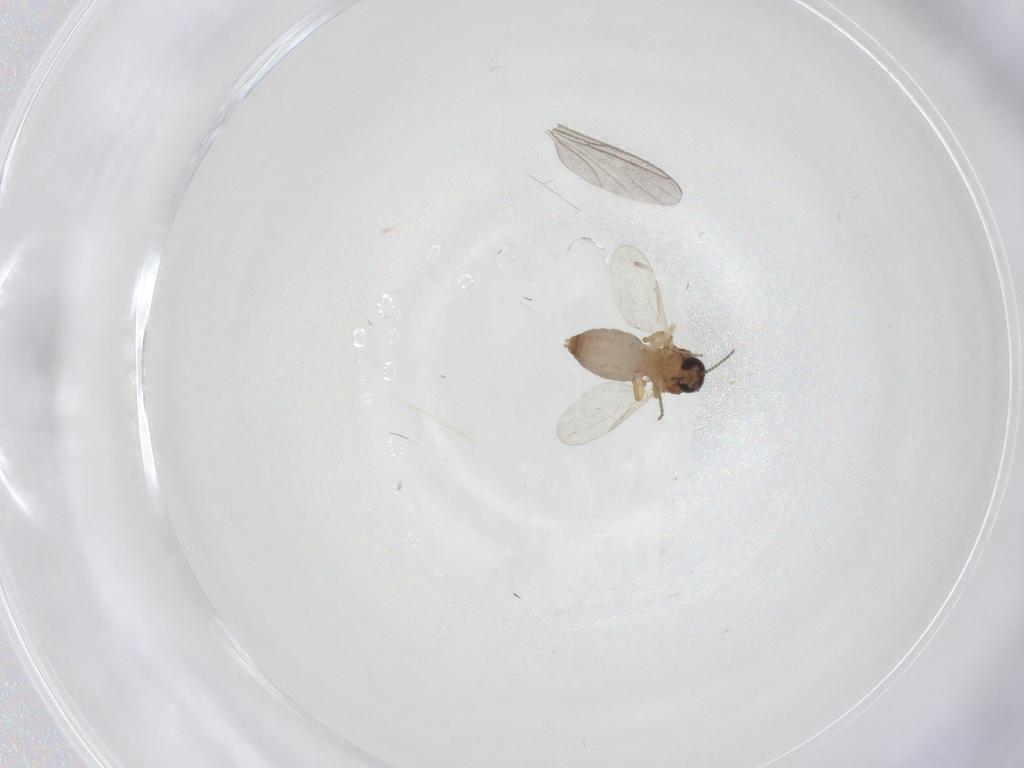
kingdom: Animalia
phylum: Arthropoda
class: Insecta
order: Diptera
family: Ceratopogonidae
